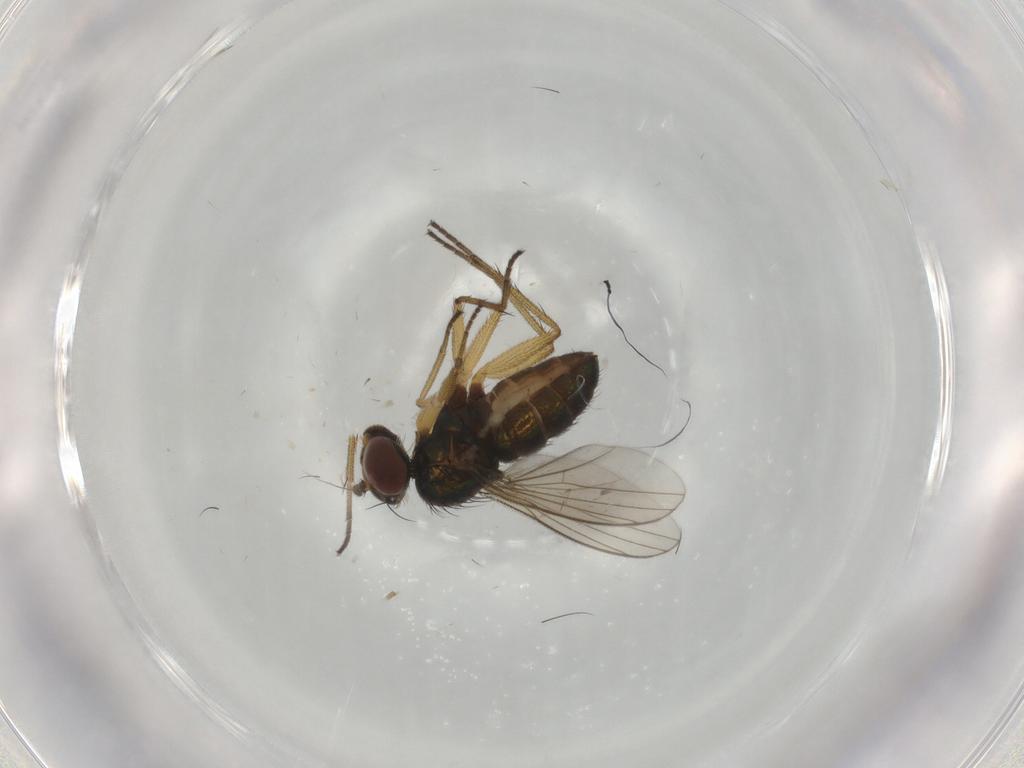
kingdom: Animalia
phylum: Arthropoda
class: Insecta
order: Diptera
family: Dolichopodidae
